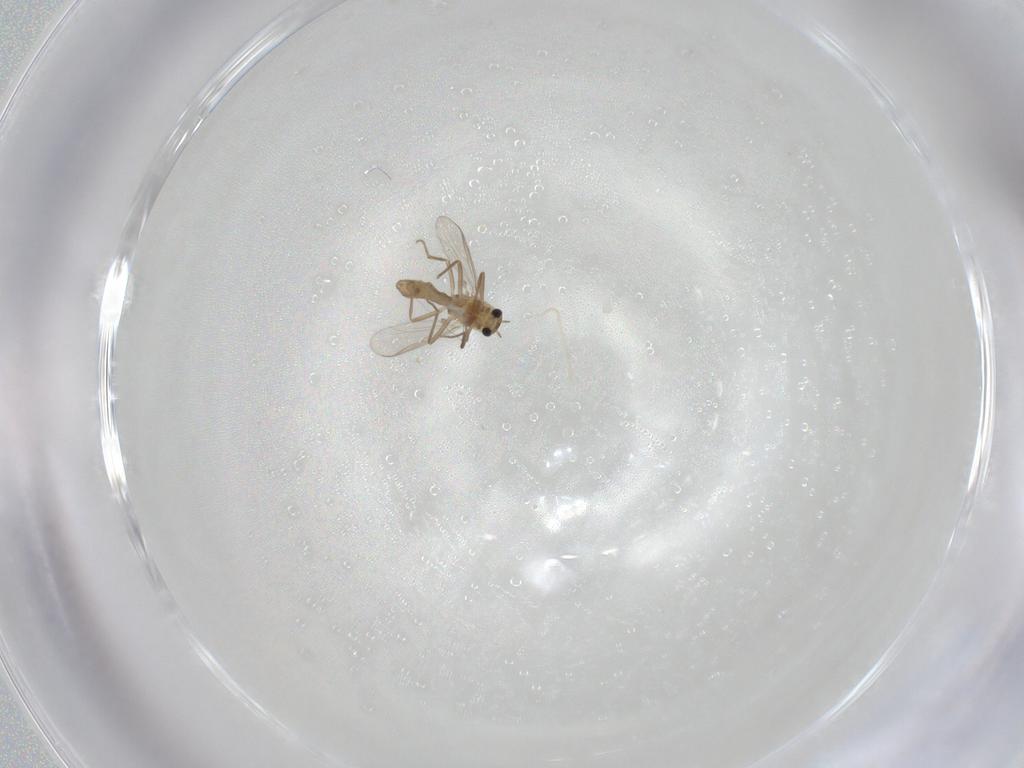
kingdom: Animalia
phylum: Arthropoda
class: Insecta
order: Diptera
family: Chironomidae
